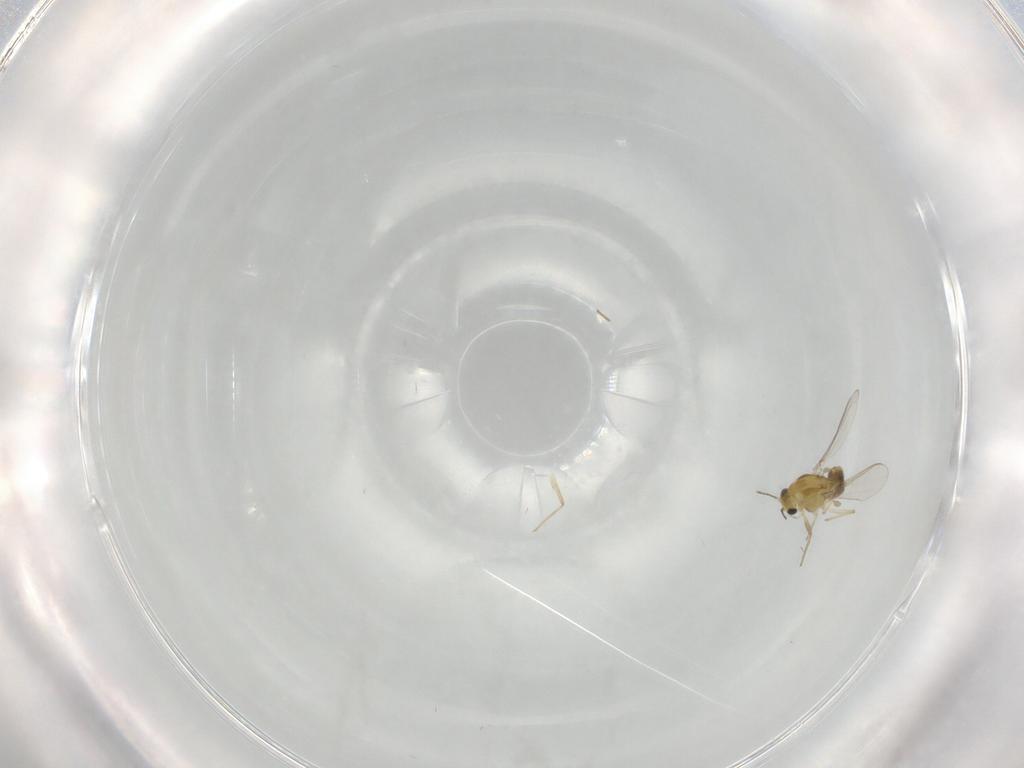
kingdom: Animalia
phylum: Arthropoda
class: Insecta
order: Diptera
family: Chironomidae
